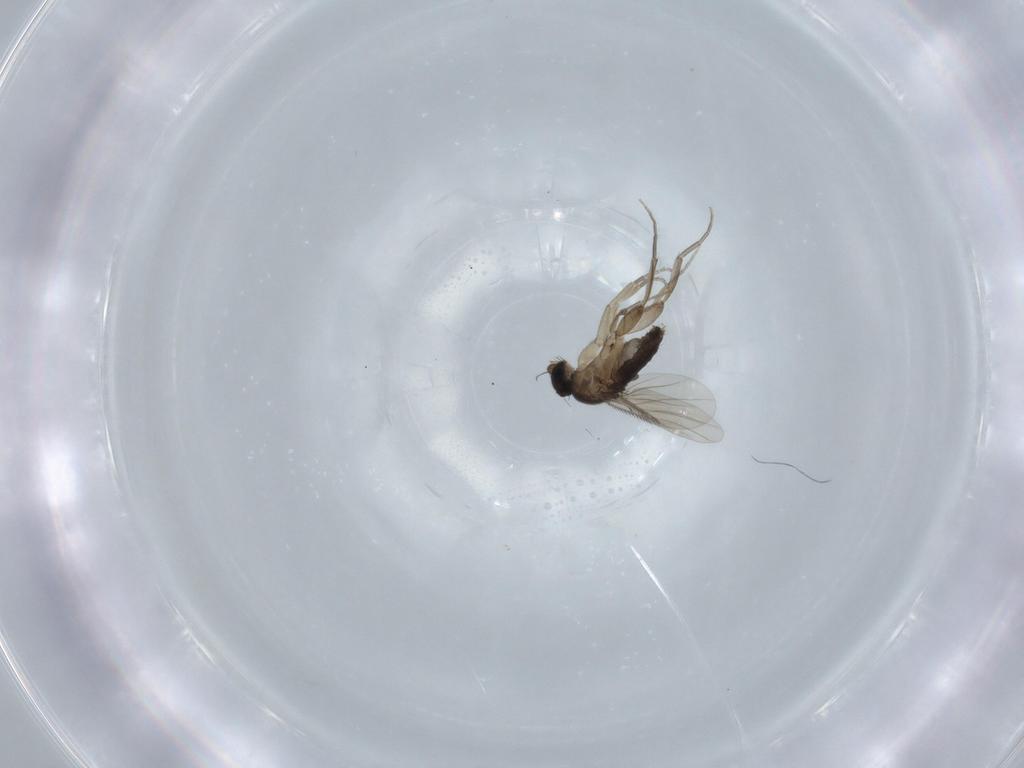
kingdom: Animalia
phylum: Arthropoda
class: Insecta
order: Diptera
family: Phoridae
